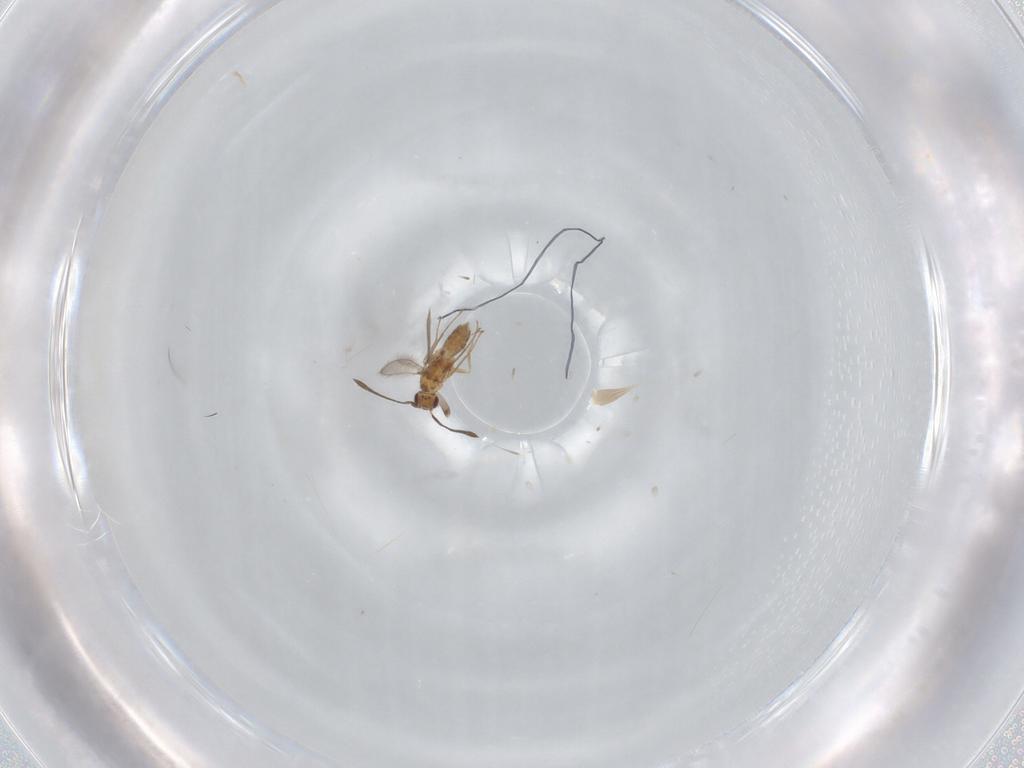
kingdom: Animalia
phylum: Arthropoda
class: Insecta
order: Hymenoptera
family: Mymaridae
